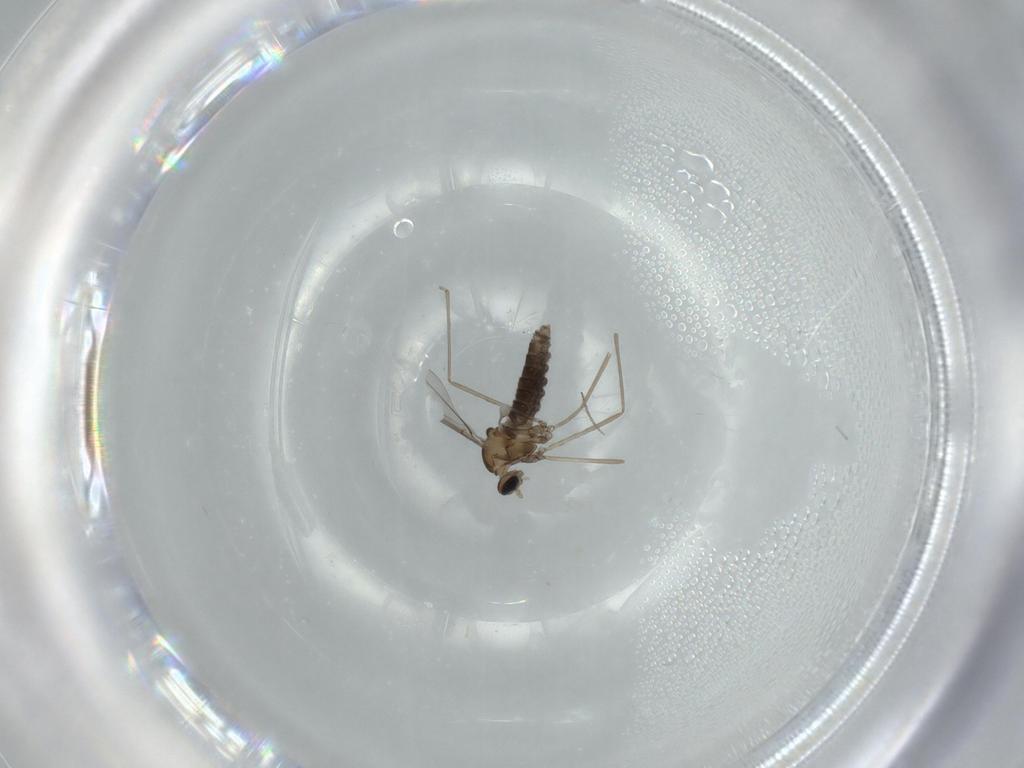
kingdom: Animalia
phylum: Arthropoda
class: Insecta
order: Diptera
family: Cecidomyiidae
